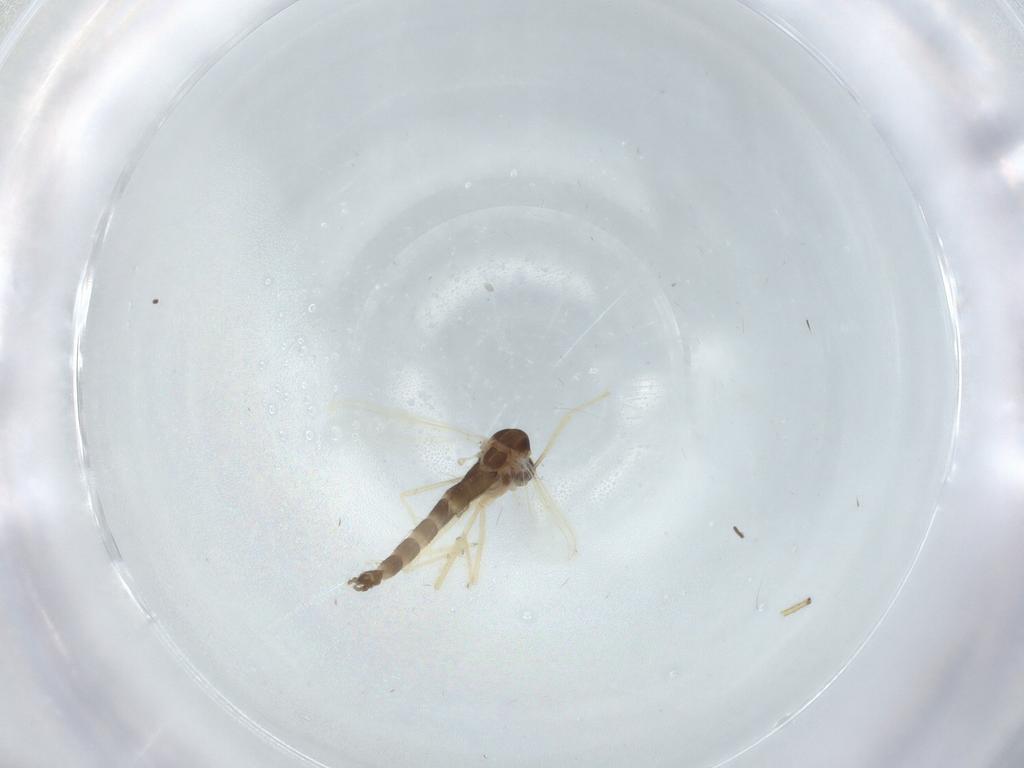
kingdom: Animalia
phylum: Arthropoda
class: Insecta
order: Diptera
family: Chironomidae
